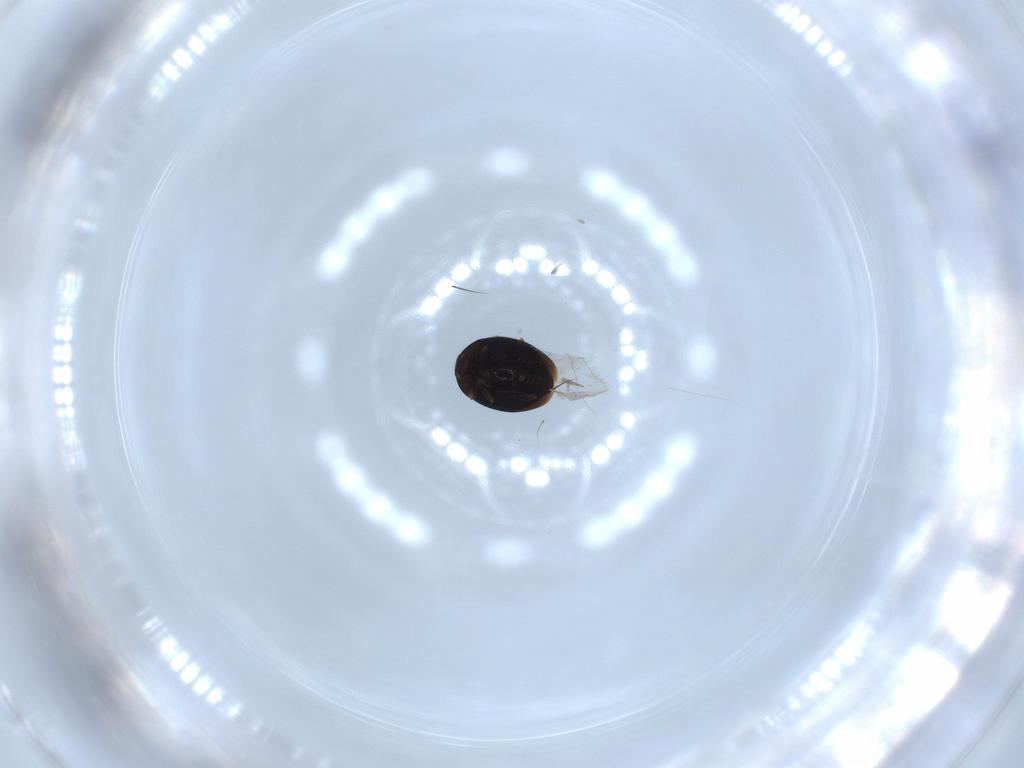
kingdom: Animalia
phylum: Arthropoda
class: Insecta
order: Coleoptera
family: Corylophidae
